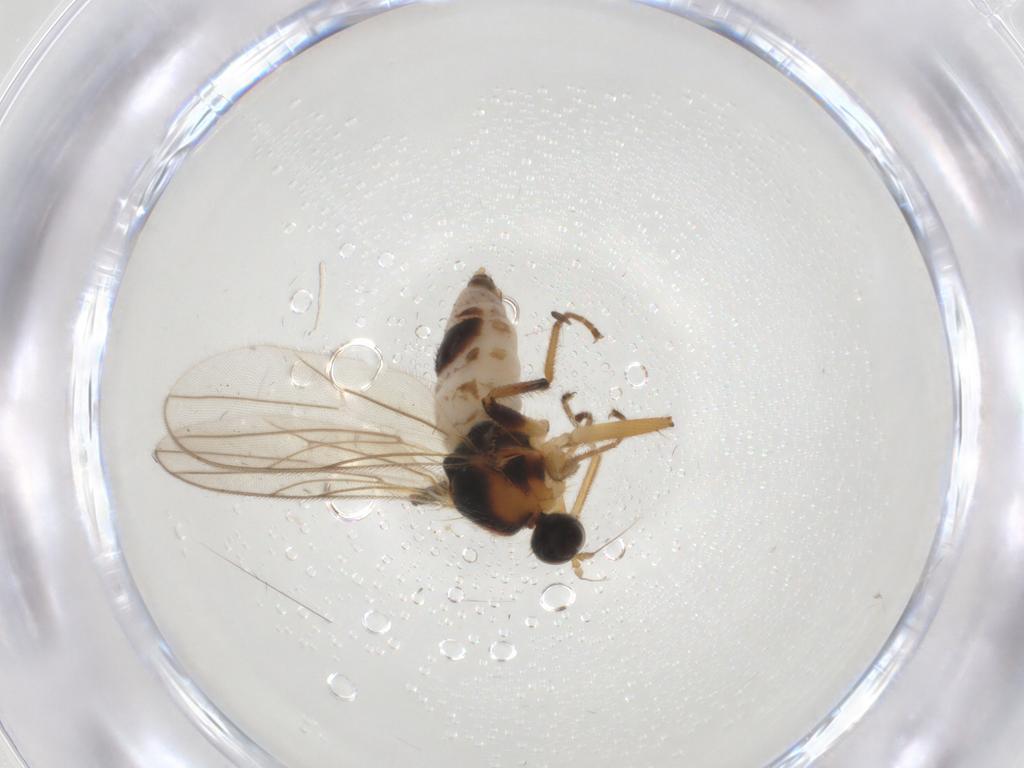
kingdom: Animalia
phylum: Arthropoda
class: Insecta
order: Diptera
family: Hybotidae
